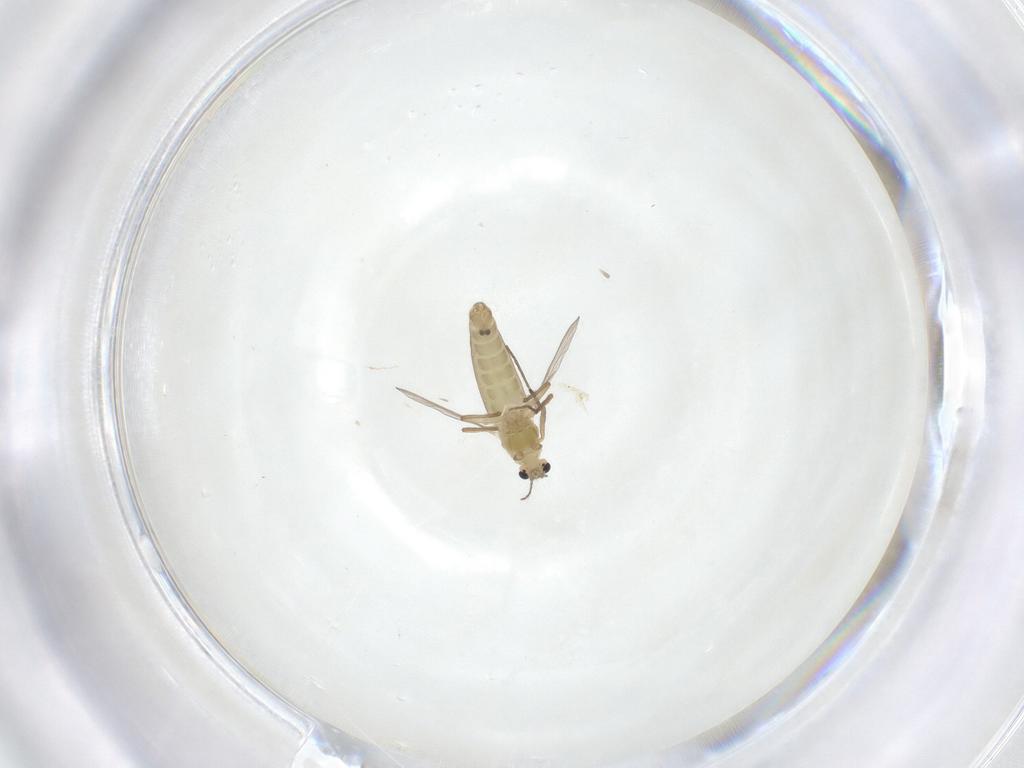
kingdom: Animalia
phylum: Arthropoda
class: Insecta
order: Diptera
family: Chironomidae
